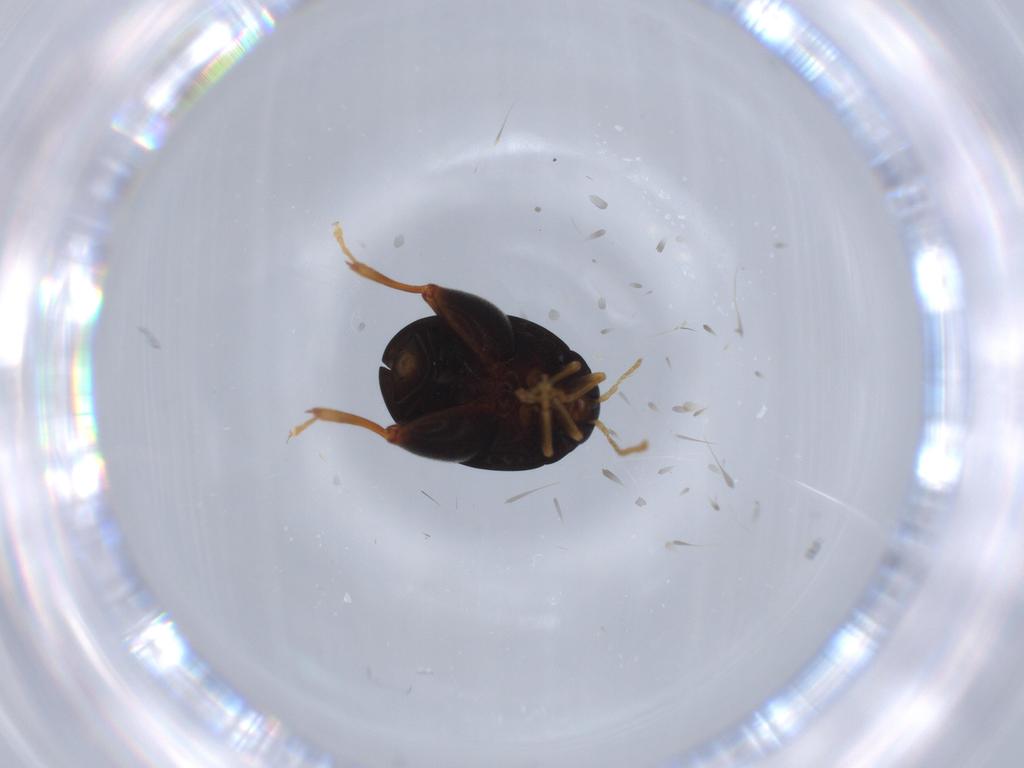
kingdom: Animalia
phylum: Arthropoda
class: Insecta
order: Coleoptera
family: Chrysomelidae
